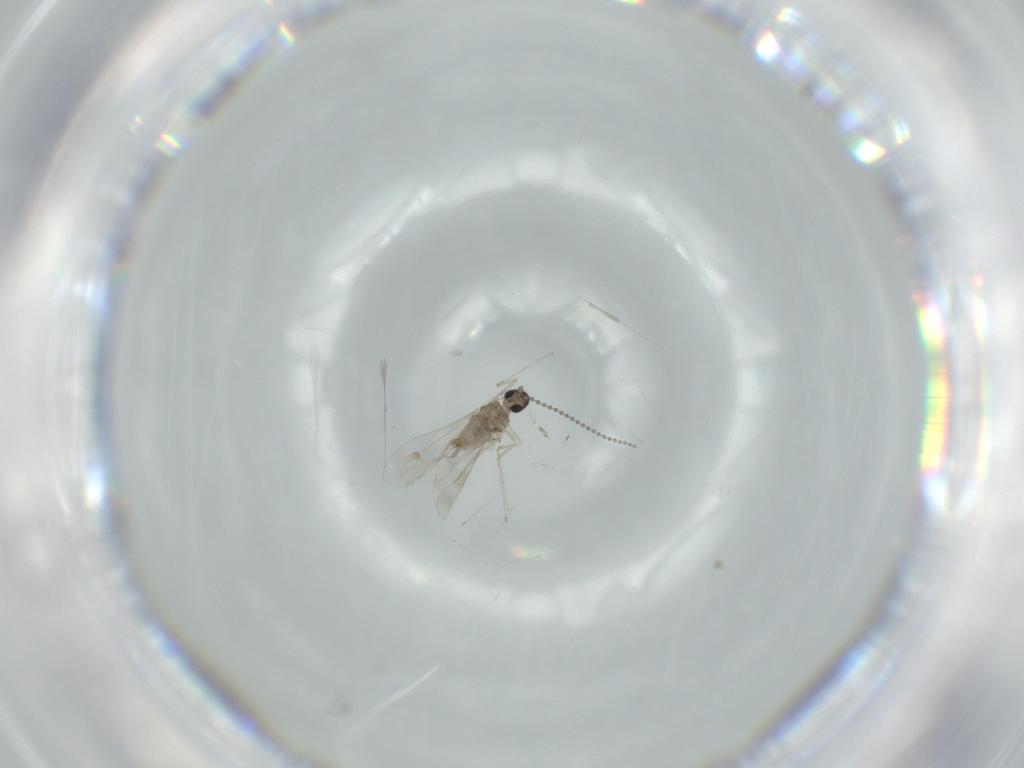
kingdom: Animalia
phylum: Arthropoda
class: Insecta
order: Diptera
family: Cecidomyiidae
